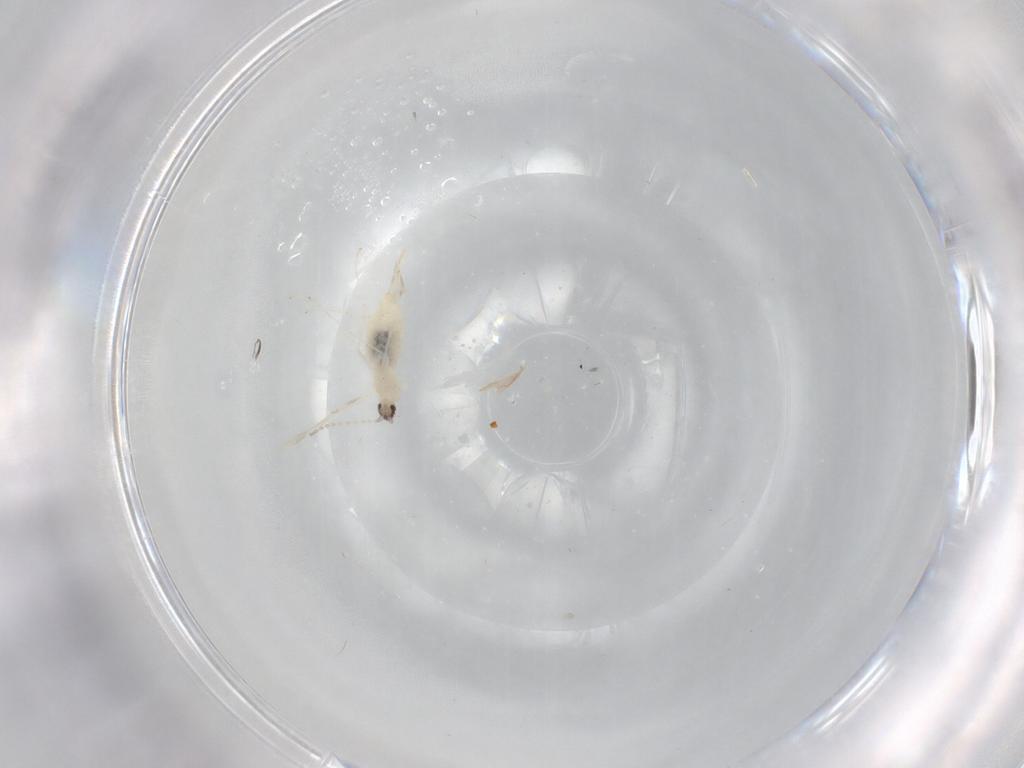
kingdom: Animalia
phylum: Arthropoda
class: Insecta
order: Diptera
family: Cecidomyiidae
